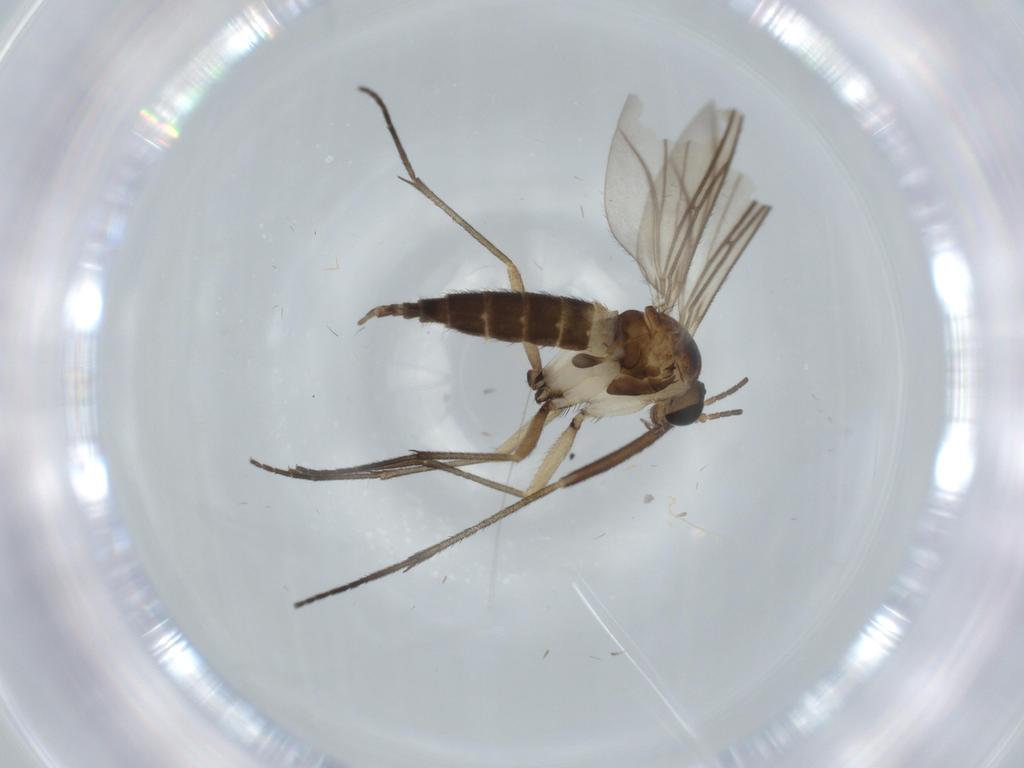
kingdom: Animalia
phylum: Arthropoda
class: Insecta
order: Diptera
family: Sciaridae
